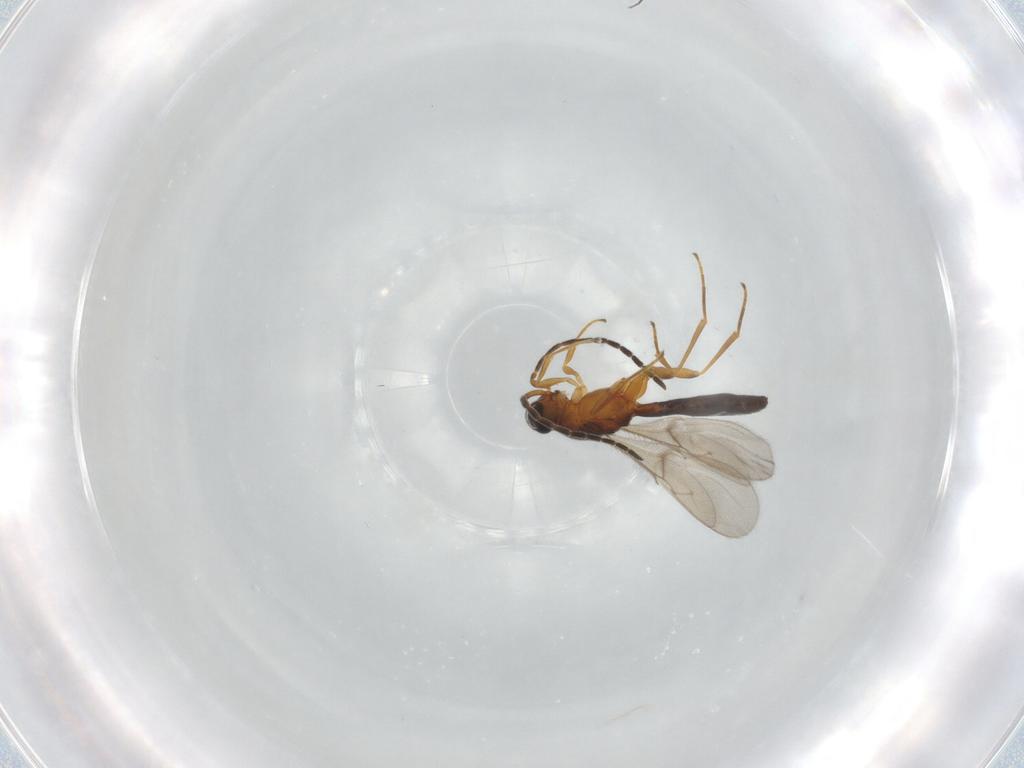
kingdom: Animalia
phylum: Arthropoda
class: Insecta
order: Hymenoptera
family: Scelionidae
